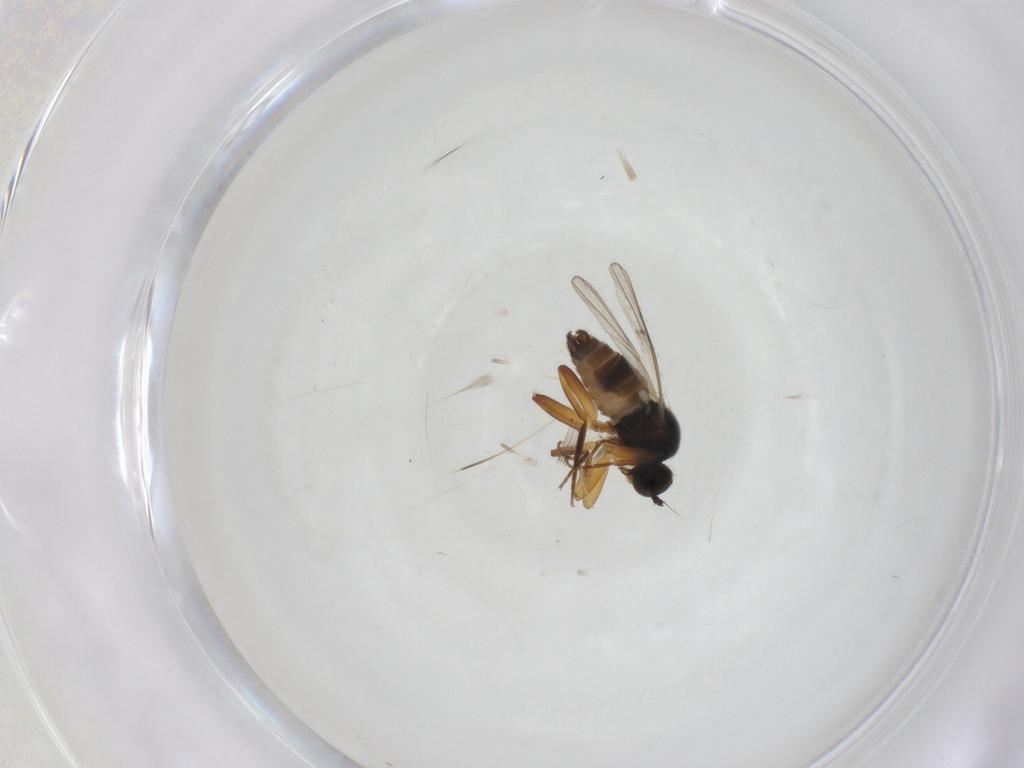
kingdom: Animalia
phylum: Arthropoda
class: Insecta
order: Diptera
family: Hybotidae
